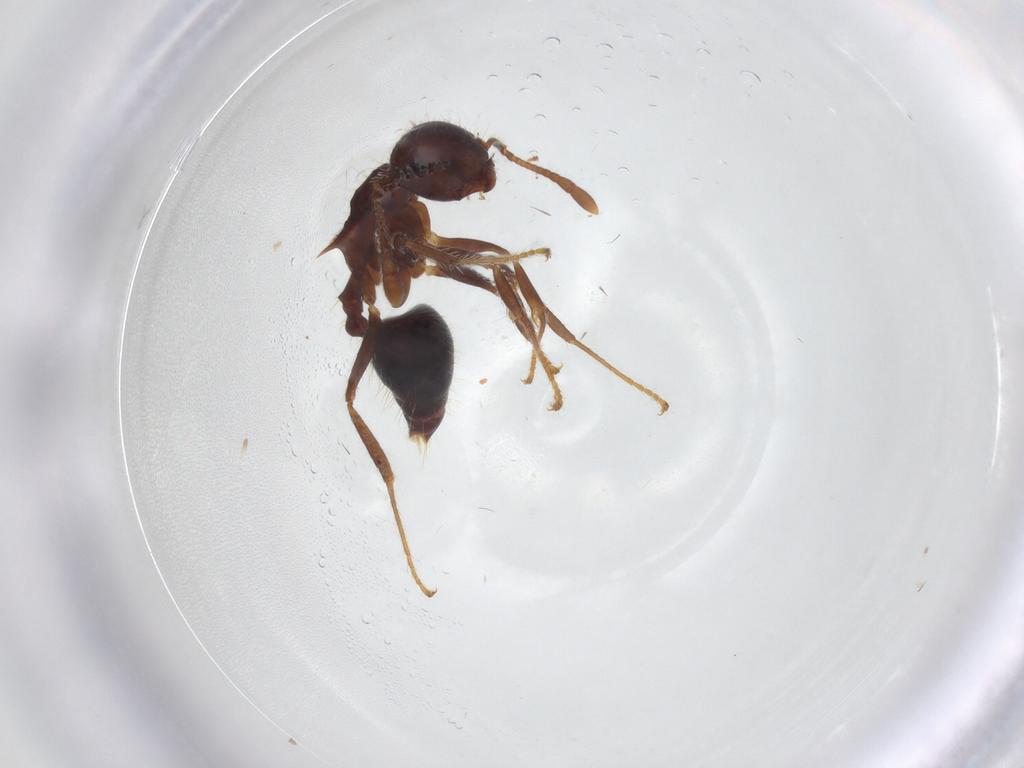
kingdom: Animalia
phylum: Arthropoda
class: Insecta
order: Hymenoptera
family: Formicidae
